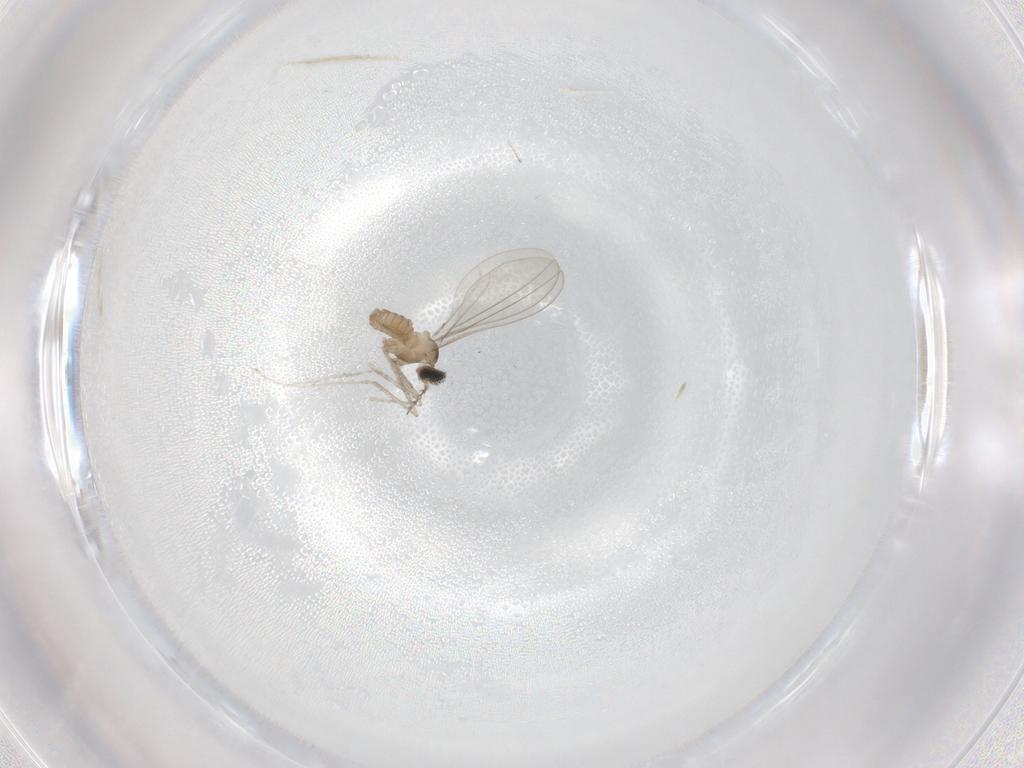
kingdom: Animalia
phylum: Arthropoda
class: Insecta
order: Diptera
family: Cecidomyiidae
